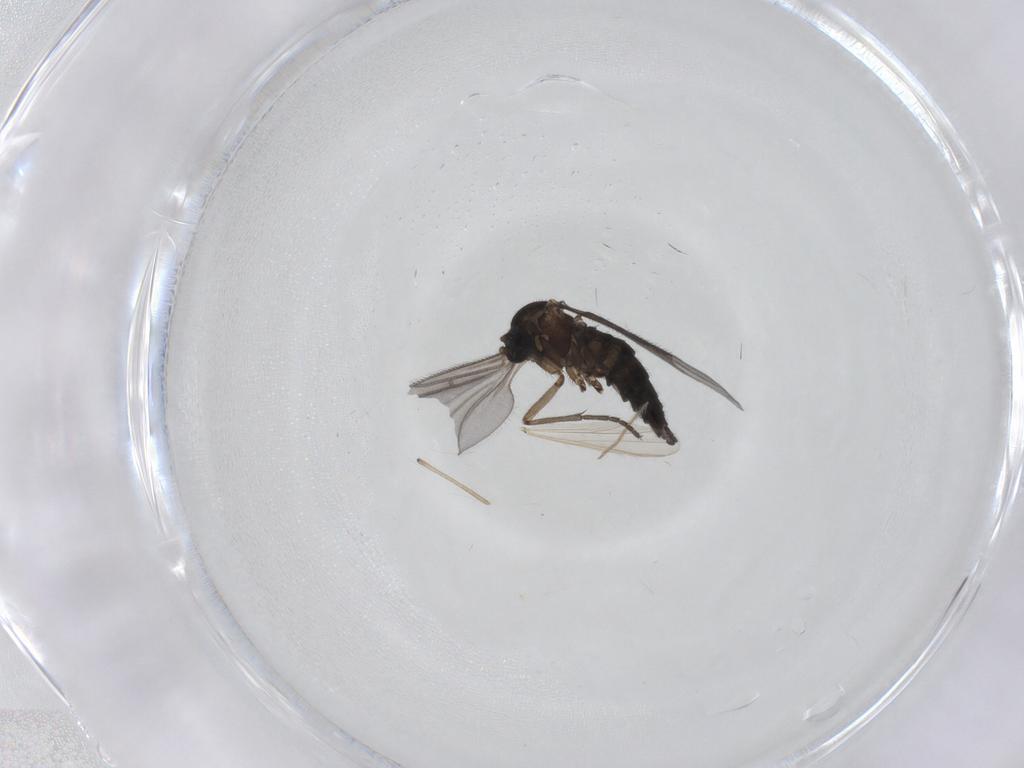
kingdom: Animalia
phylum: Arthropoda
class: Insecta
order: Diptera
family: Sciaridae
